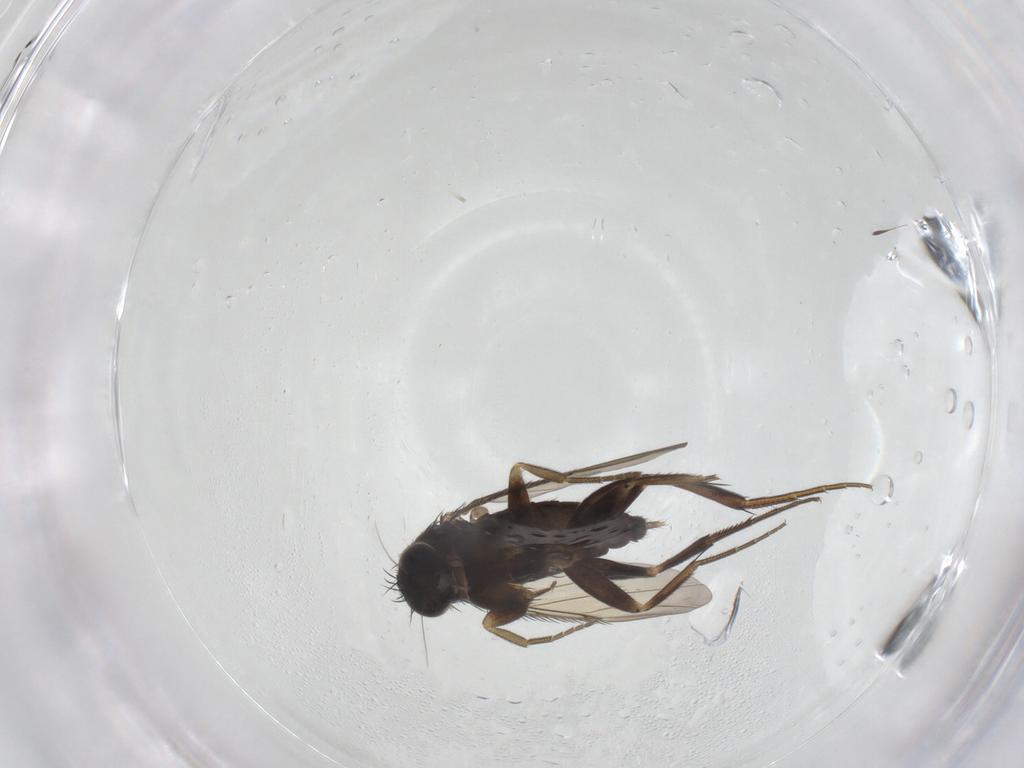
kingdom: Animalia
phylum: Arthropoda
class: Insecta
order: Diptera
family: Phoridae
